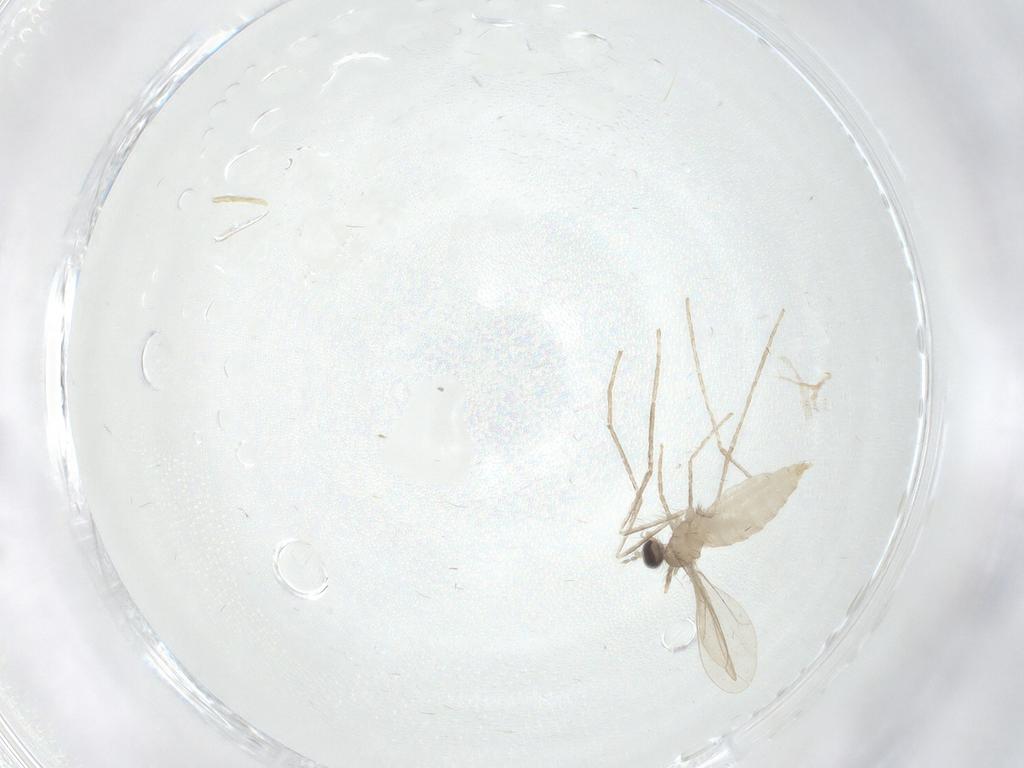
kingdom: Animalia
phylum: Arthropoda
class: Insecta
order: Diptera
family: Cecidomyiidae
